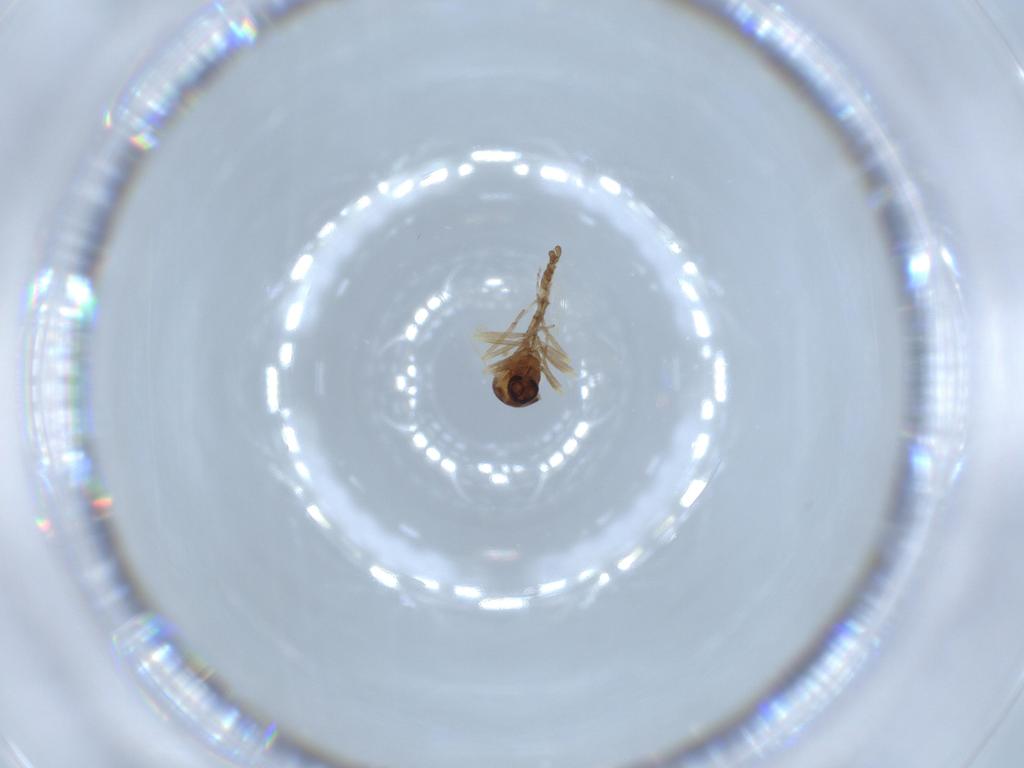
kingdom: Animalia
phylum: Arthropoda
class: Insecta
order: Diptera
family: Ceratopogonidae
